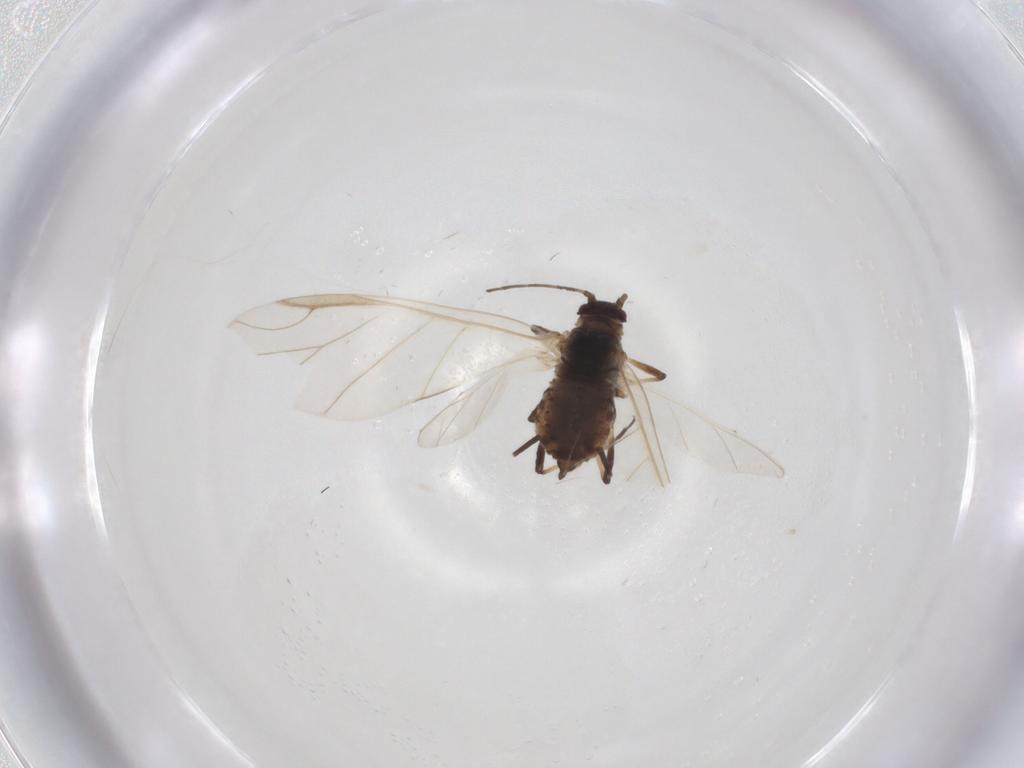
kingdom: Animalia
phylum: Arthropoda
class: Insecta
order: Hemiptera
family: Aphididae
